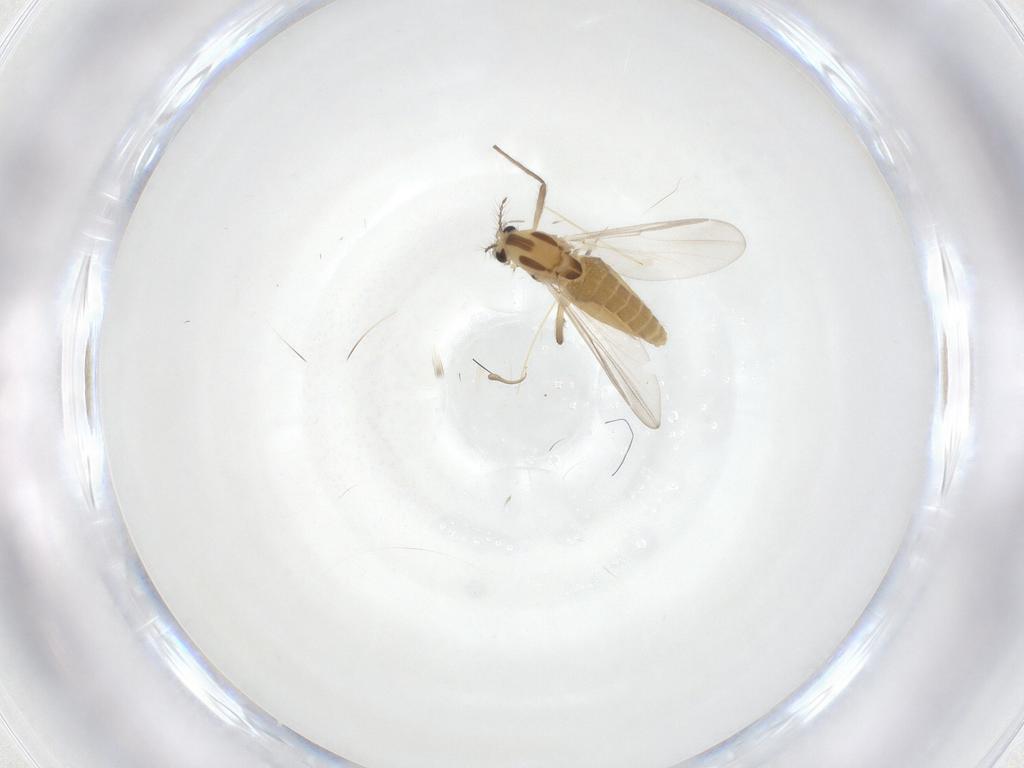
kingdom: Animalia
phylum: Arthropoda
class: Insecta
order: Diptera
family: Chironomidae
